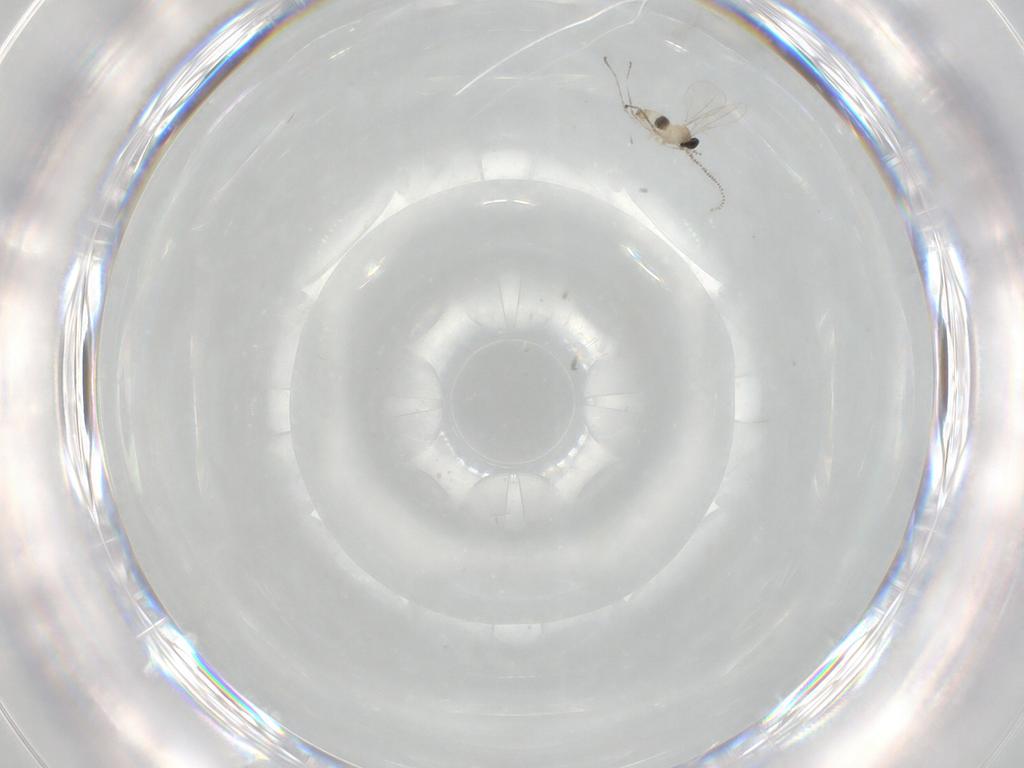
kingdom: Animalia
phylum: Arthropoda
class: Insecta
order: Diptera
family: Cecidomyiidae
